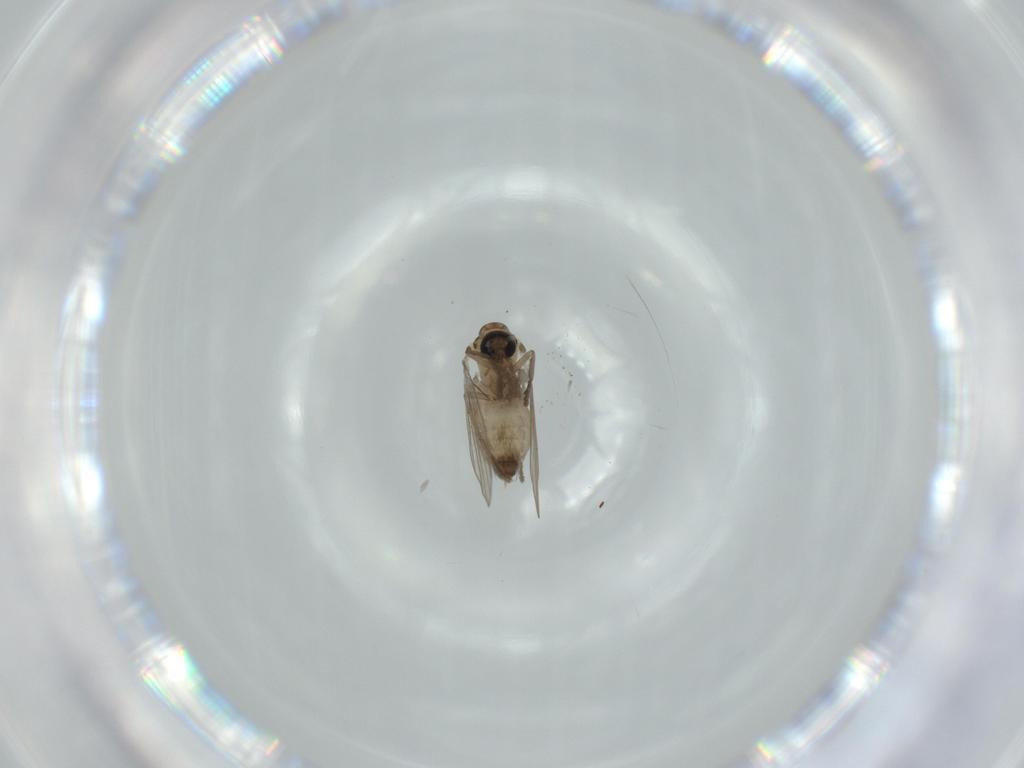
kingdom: Animalia
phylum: Arthropoda
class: Insecta
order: Diptera
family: Psychodidae
